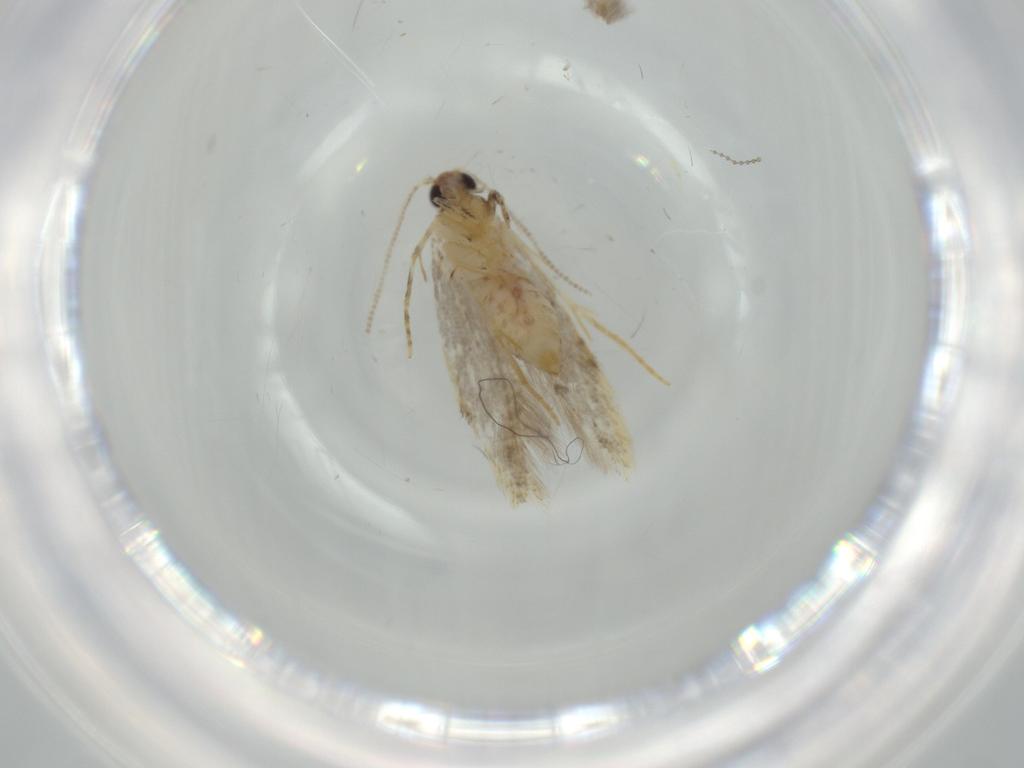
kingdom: Animalia
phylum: Arthropoda
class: Insecta
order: Lepidoptera
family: Tineidae
